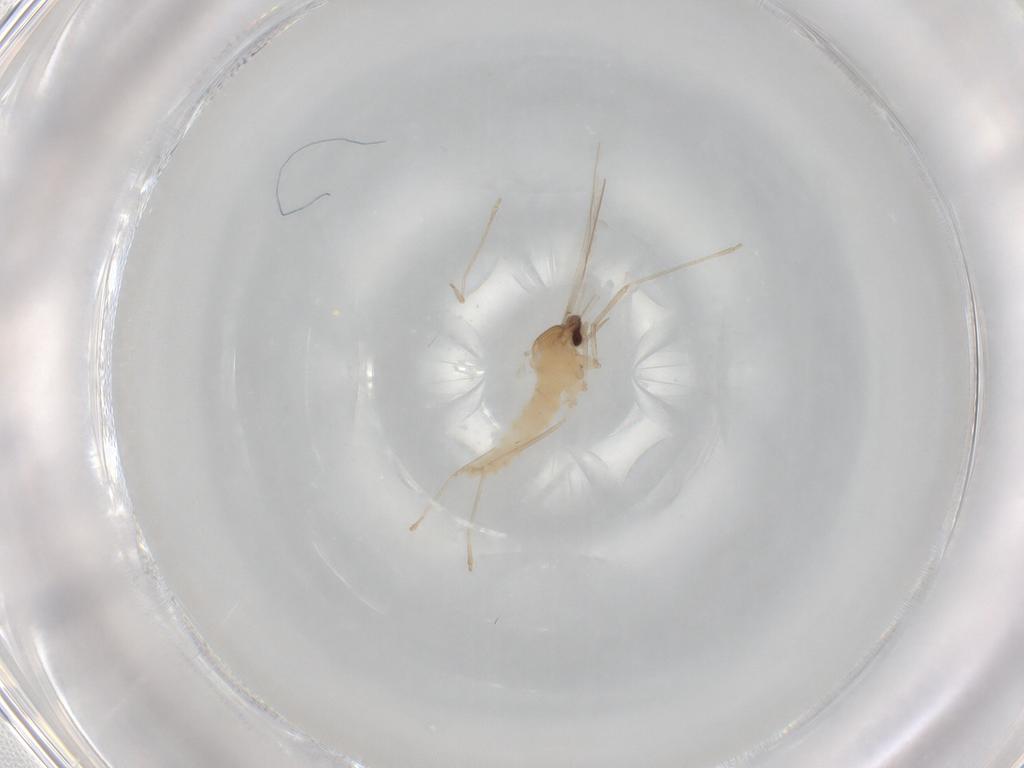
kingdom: Animalia
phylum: Arthropoda
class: Insecta
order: Diptera
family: Cecidomyiidae
